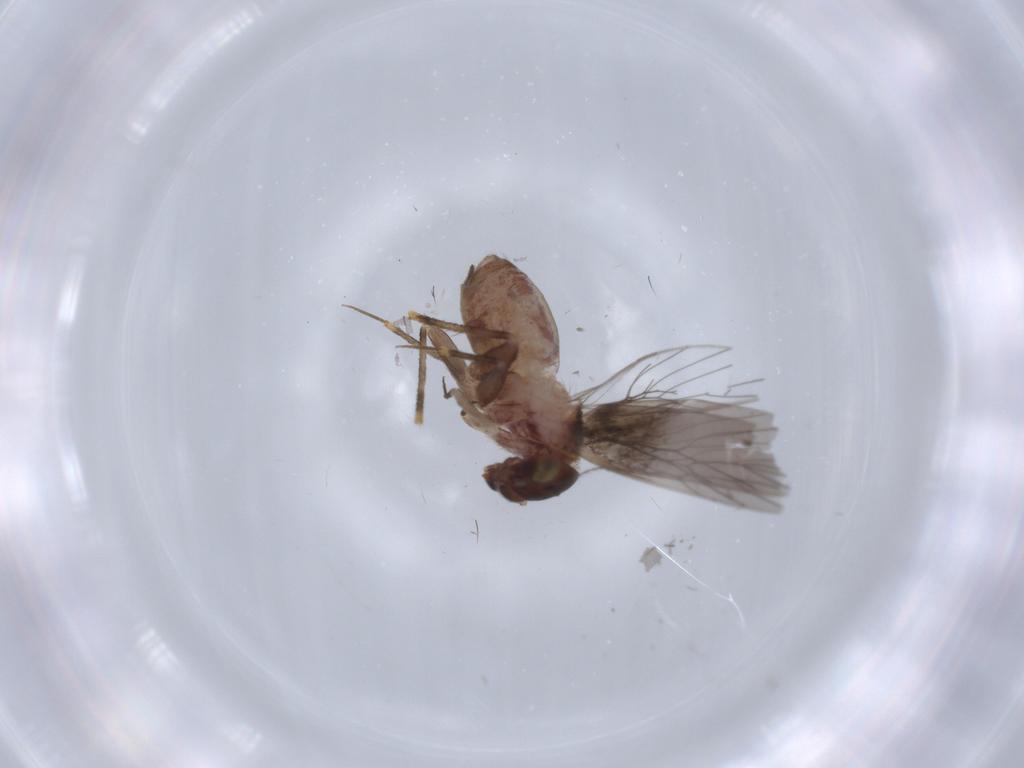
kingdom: Animalia
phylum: Arthropoda
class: Insecta
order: Psocodea
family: Lepidopsocidae
